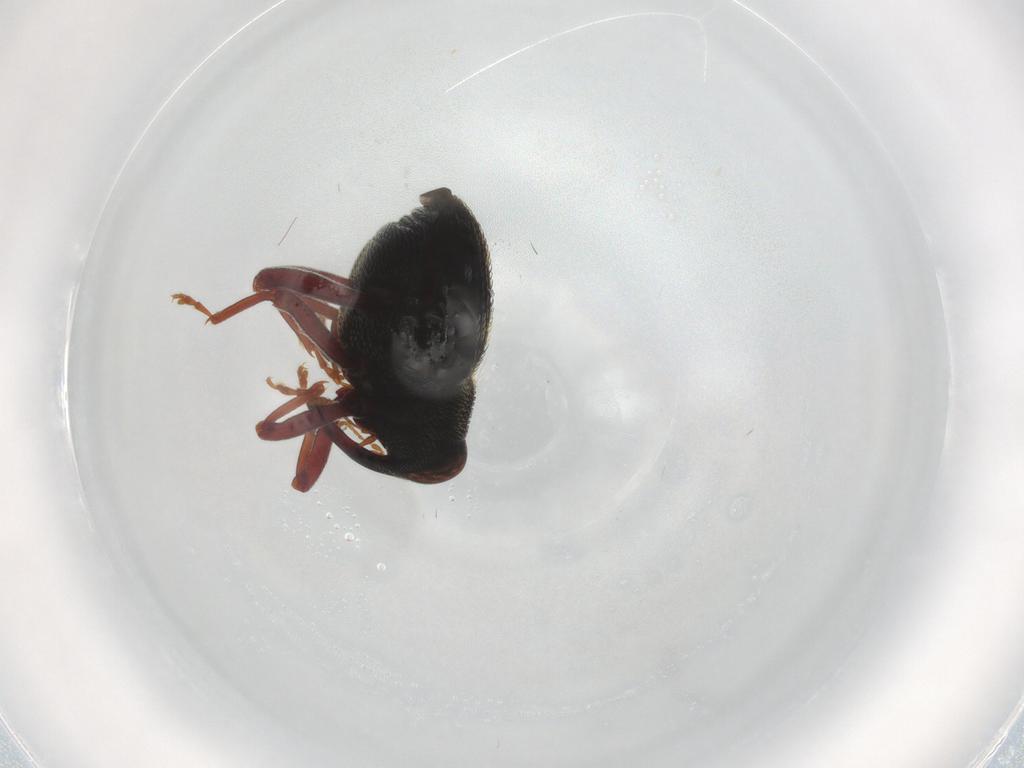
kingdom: Animalia
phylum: Arthropoda
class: Insecta
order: Coleoptera
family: Curculionidae
